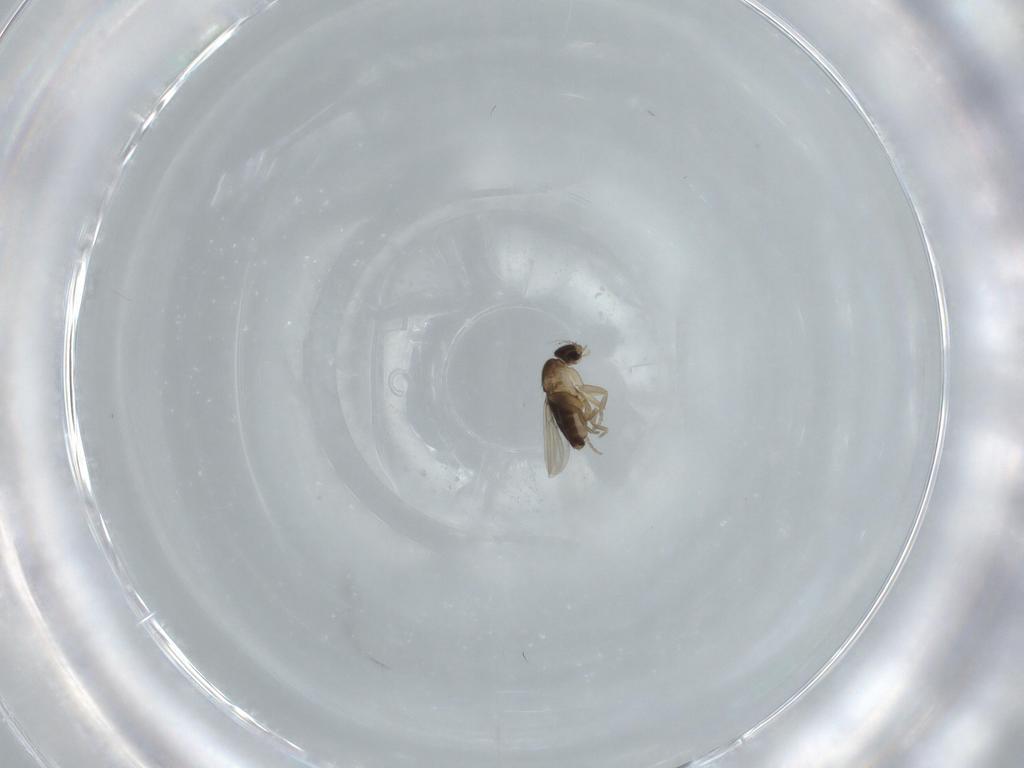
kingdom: Animalia
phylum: Arthropoda
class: Insecta
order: Diptera
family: Phoridae
